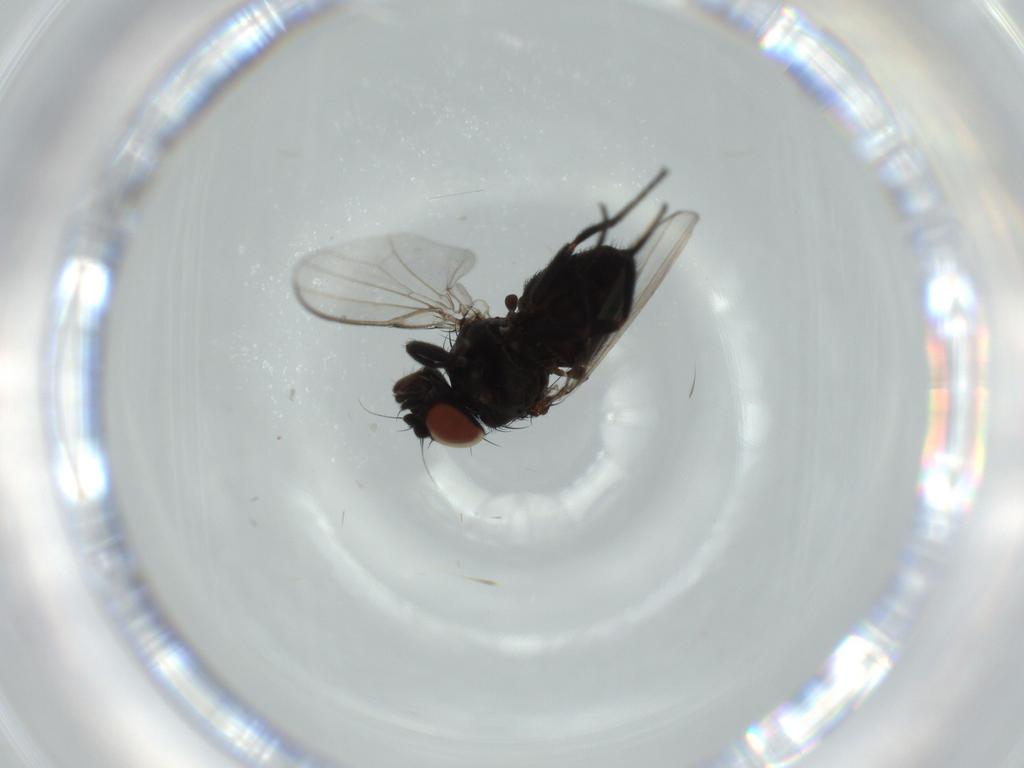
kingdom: Animalia
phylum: Arthropoda
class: Insecta
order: Diptera
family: Milichiidae
